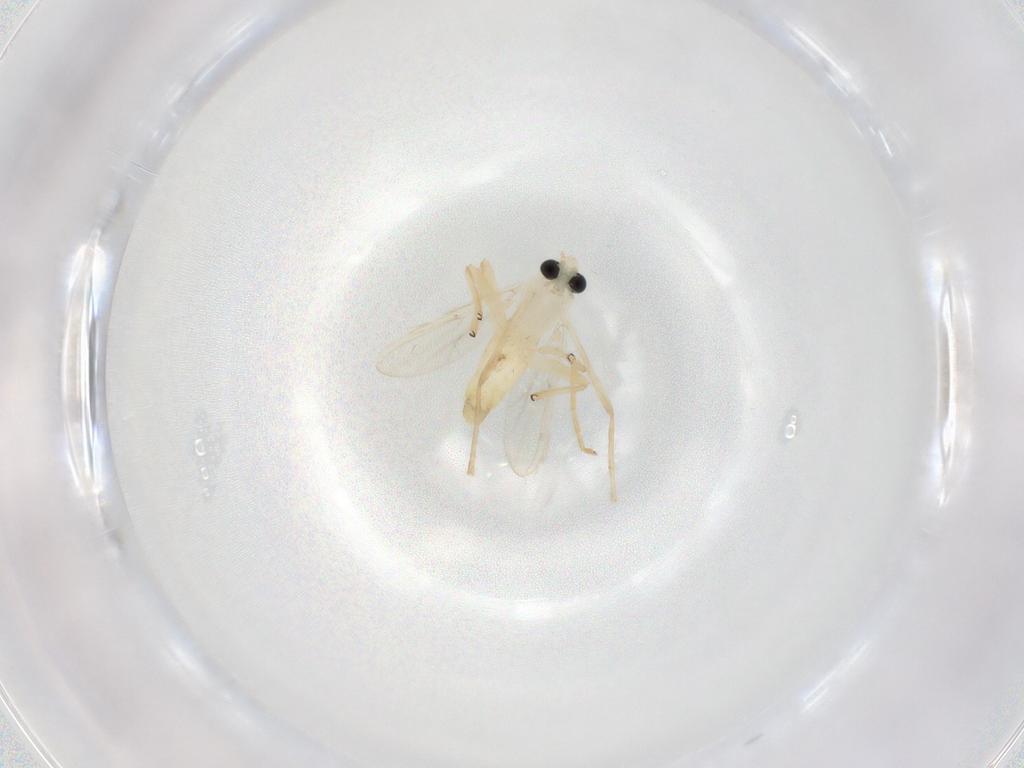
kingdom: Animalia
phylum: Arthropoda
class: Insecta
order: Diptera
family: Chironomidae
